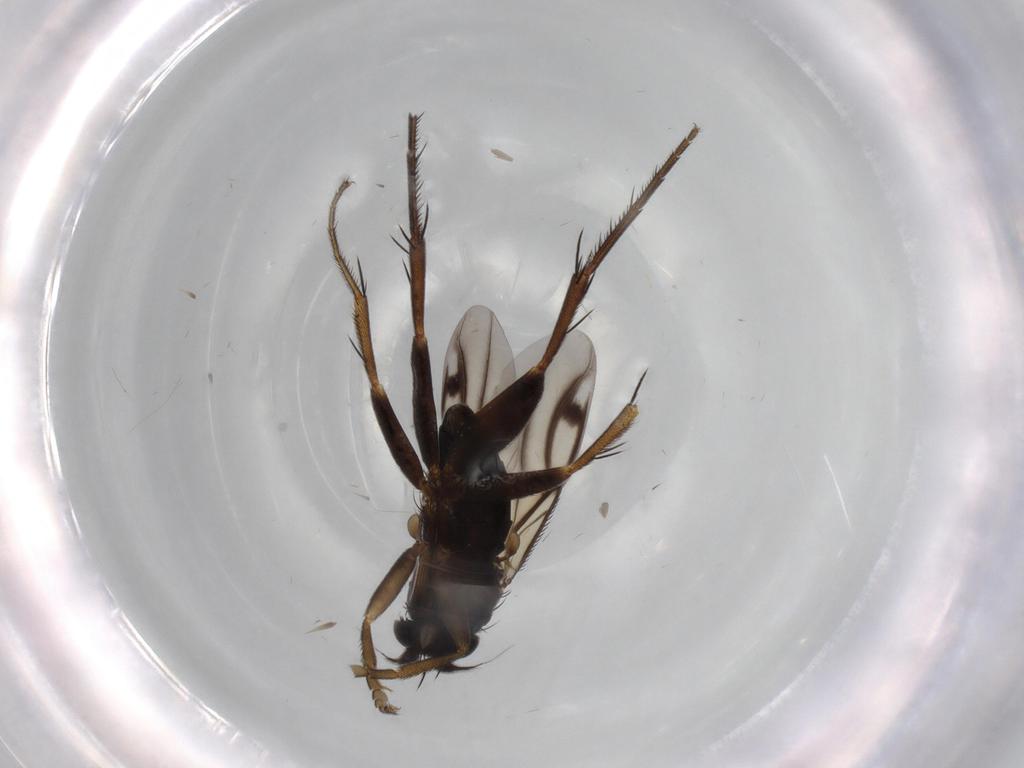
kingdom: Animalia
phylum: Arthropoda
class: Insecta
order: Diptera
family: Phoridae
